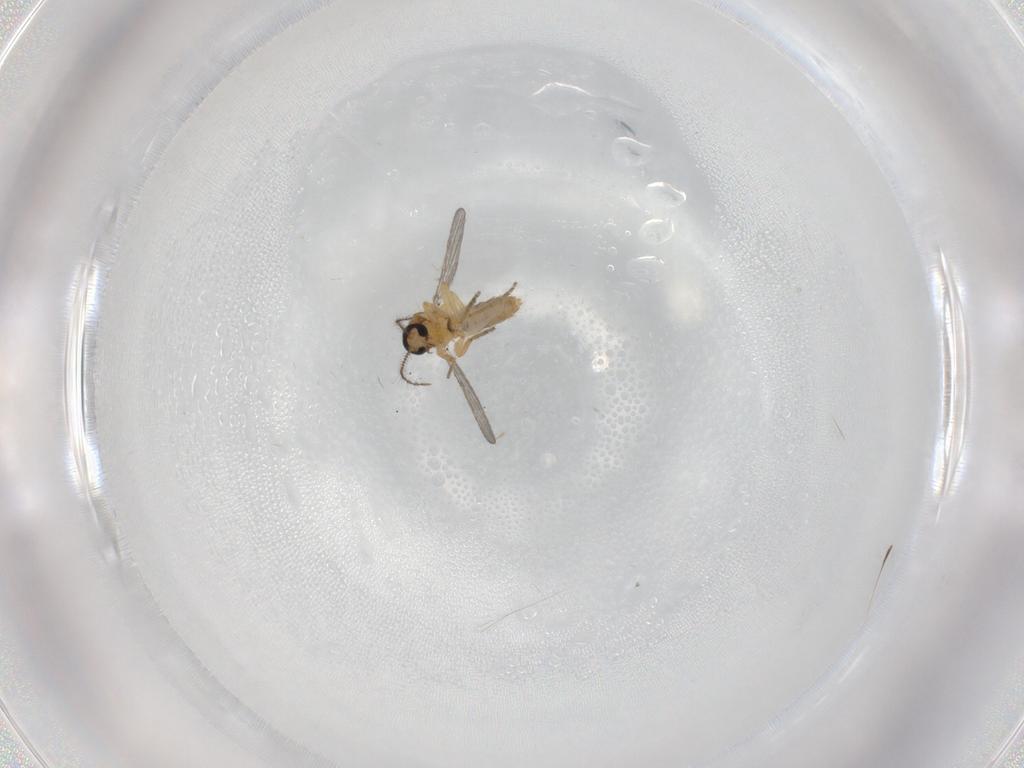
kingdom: Animalia
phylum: Arthropoda
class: Insecta
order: Diptera
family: Ceratopogonidae
